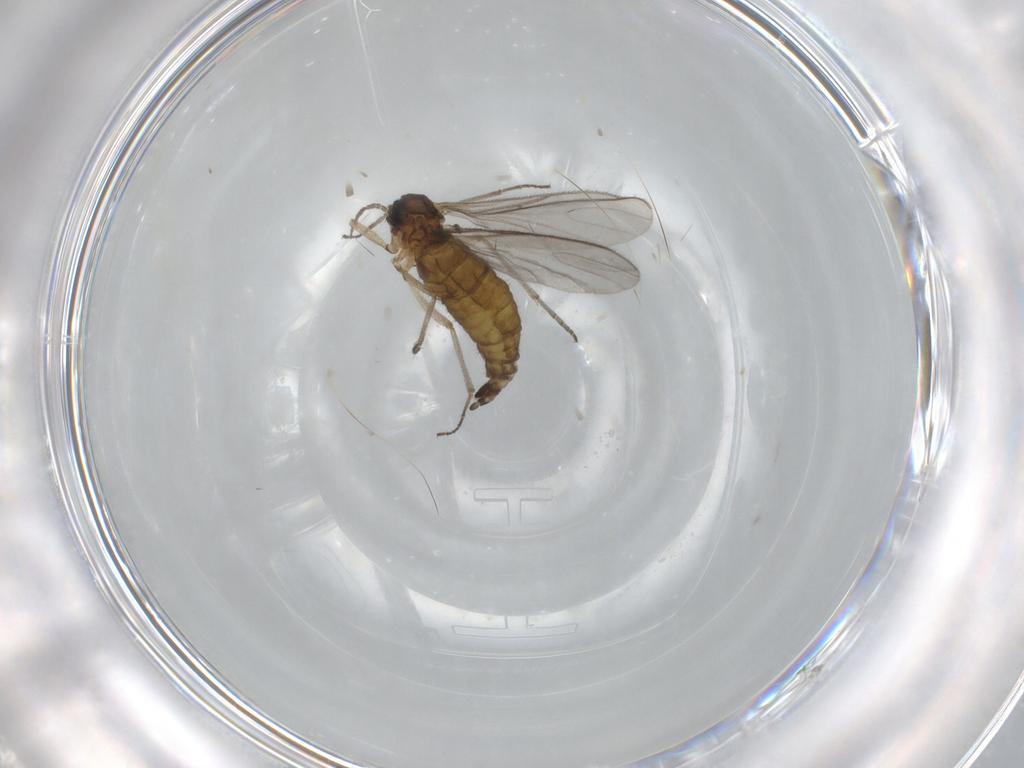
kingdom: Animalia
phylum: Arthropoda
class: Insecta
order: Diptera
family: Sciaridae
